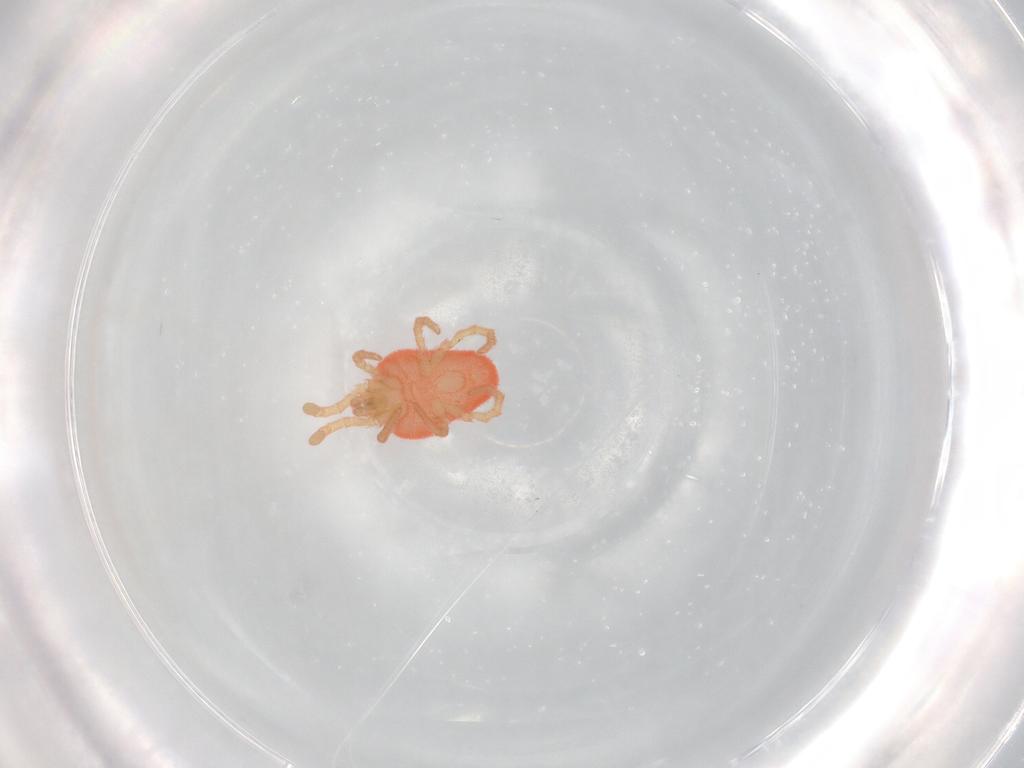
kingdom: Animalia
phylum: Arthropoda
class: Arachnida
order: Trombidiformes
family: Trombidiidae
